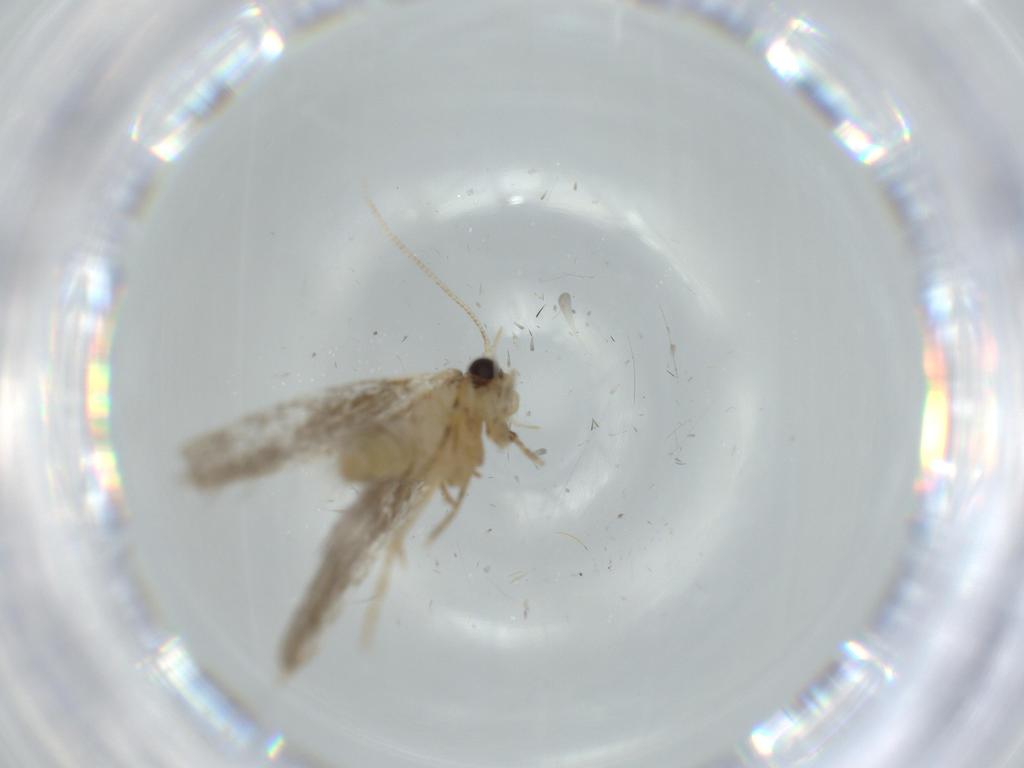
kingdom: Animalia
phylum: Arthropoda
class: Insecta
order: Lepidoptera
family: Tineidae
